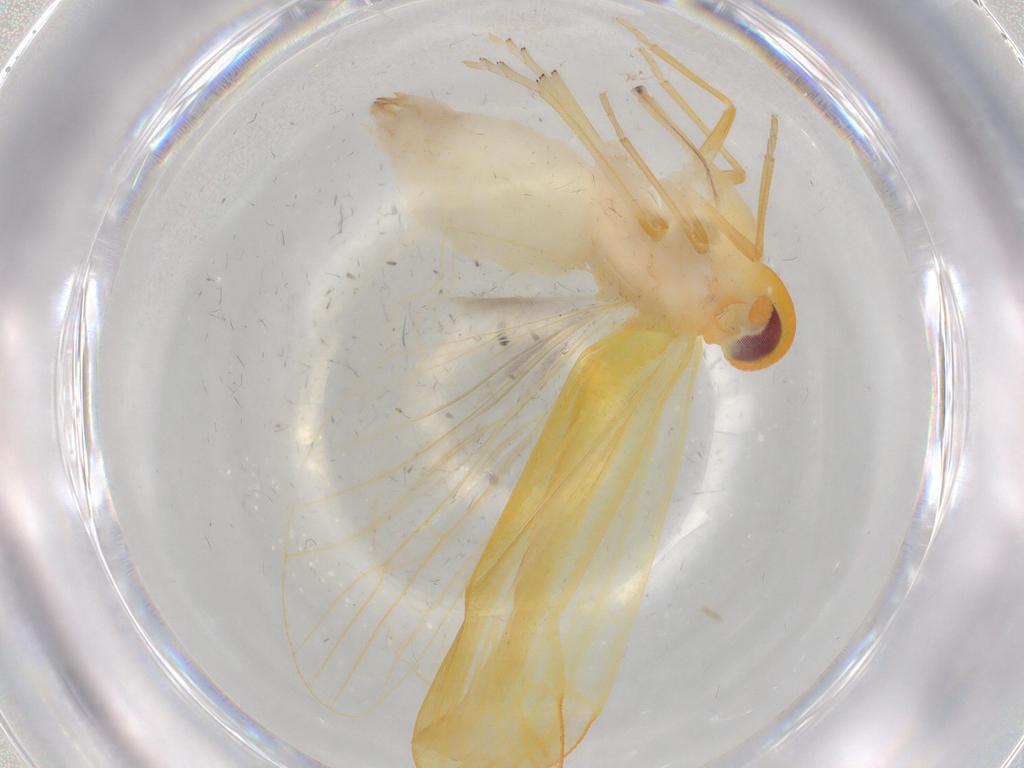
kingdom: Animalia
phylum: Arthropoda
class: Insecta
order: Hemiptera
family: Derbidae
